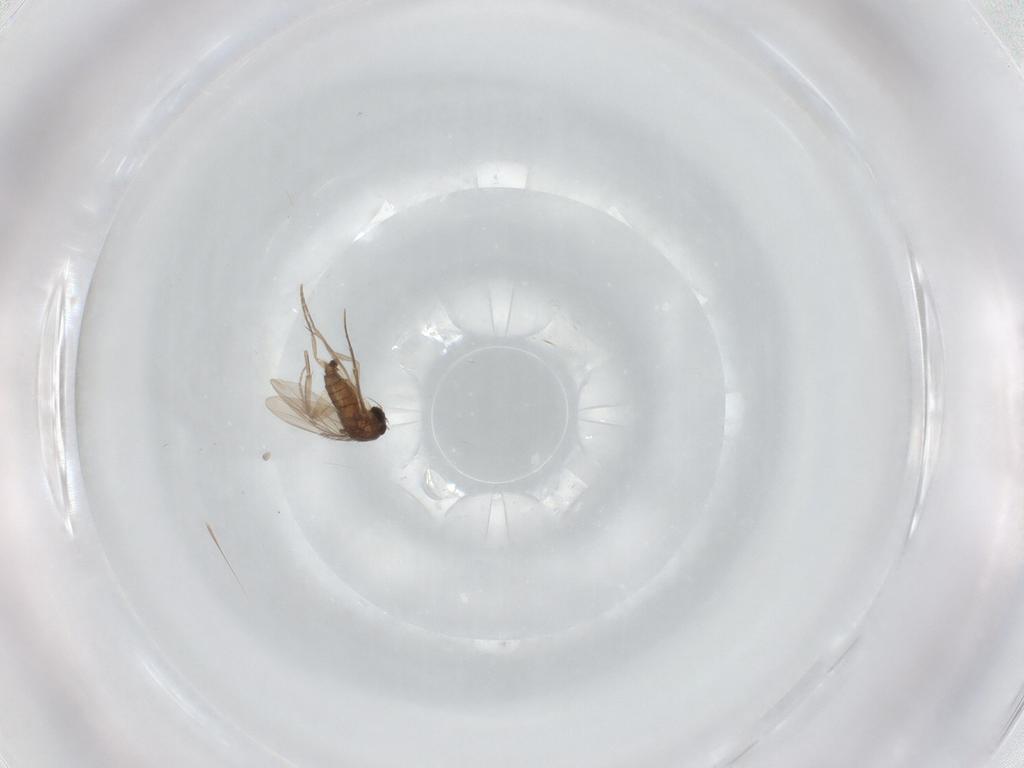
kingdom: Animalia
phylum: Arthropoda
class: Insecta
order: Diptera
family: Phoridae
